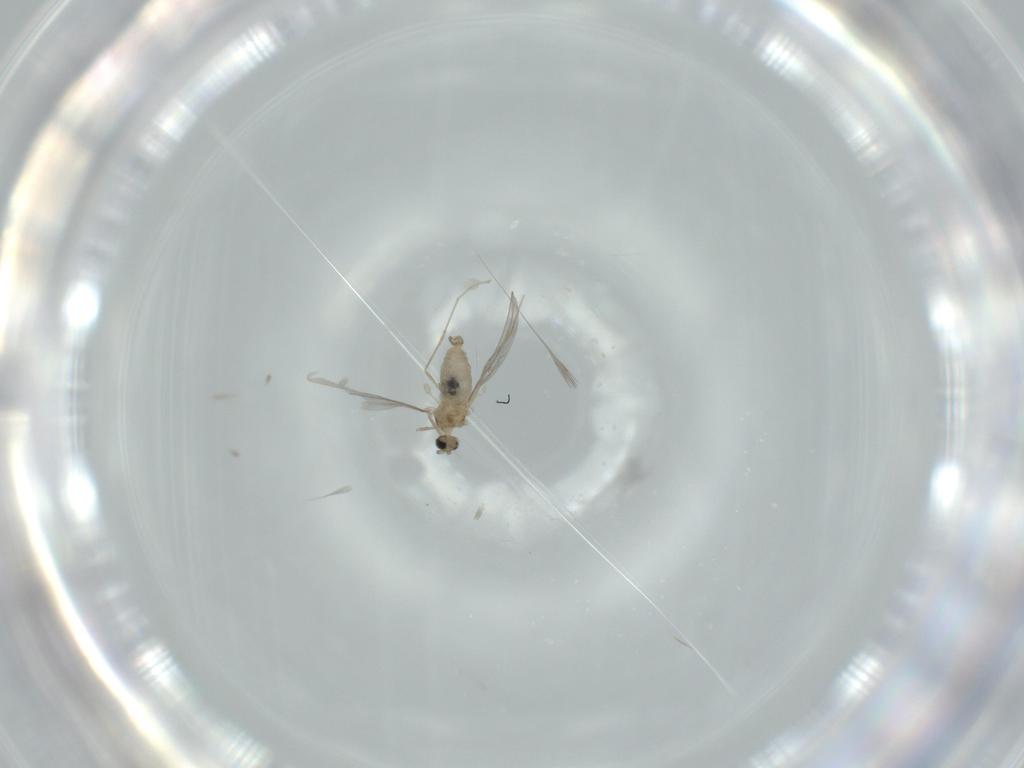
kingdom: Animalia
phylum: Arthropoda
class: Insecta
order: Diptera
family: Cecidomyiidae
